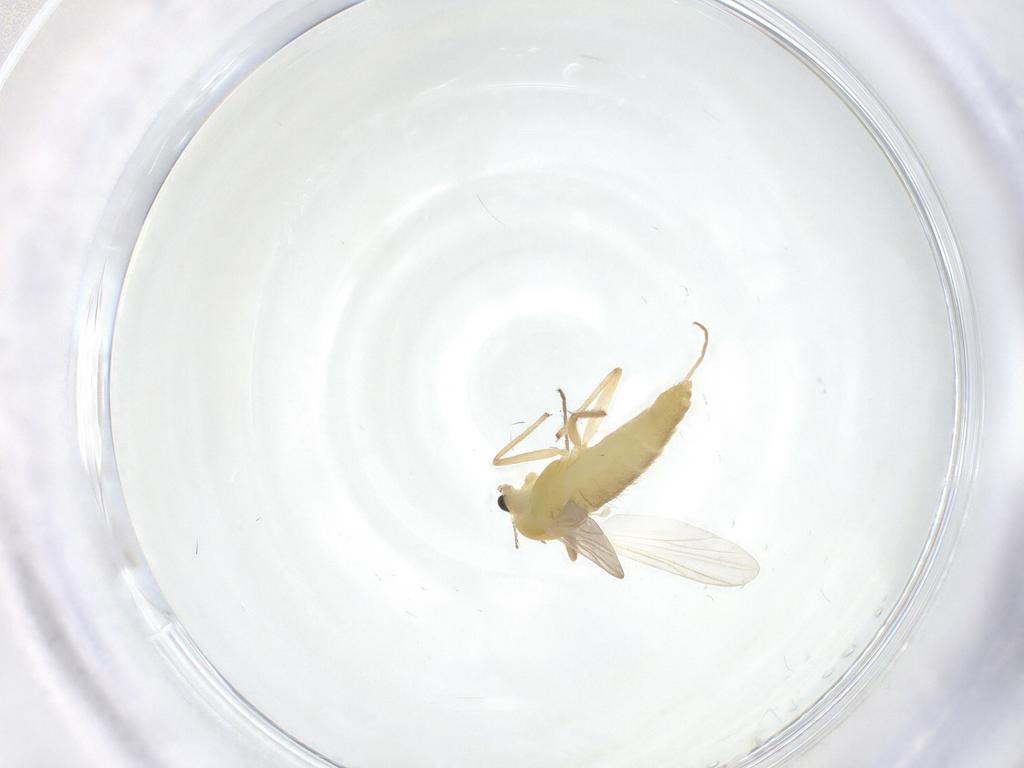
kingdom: Animalia
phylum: Arthropoda
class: Insecta
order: Diptera
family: Chironomidae
